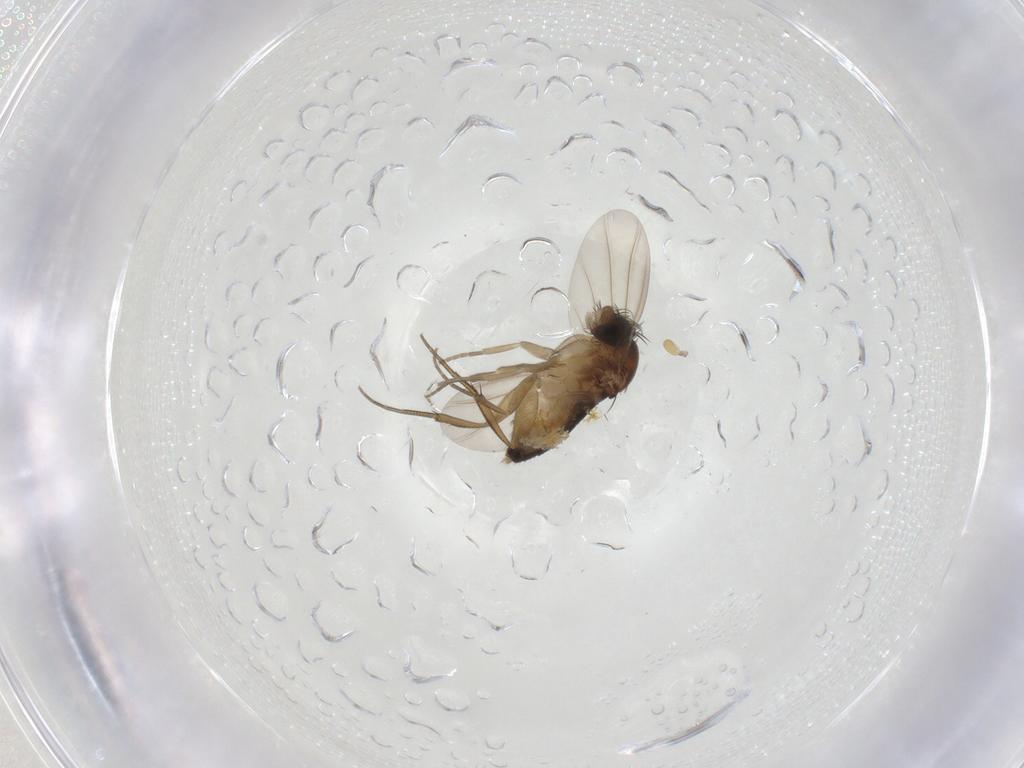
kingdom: Animalia
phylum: Arthropoda
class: Insecta
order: Diptera
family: Phoridae
